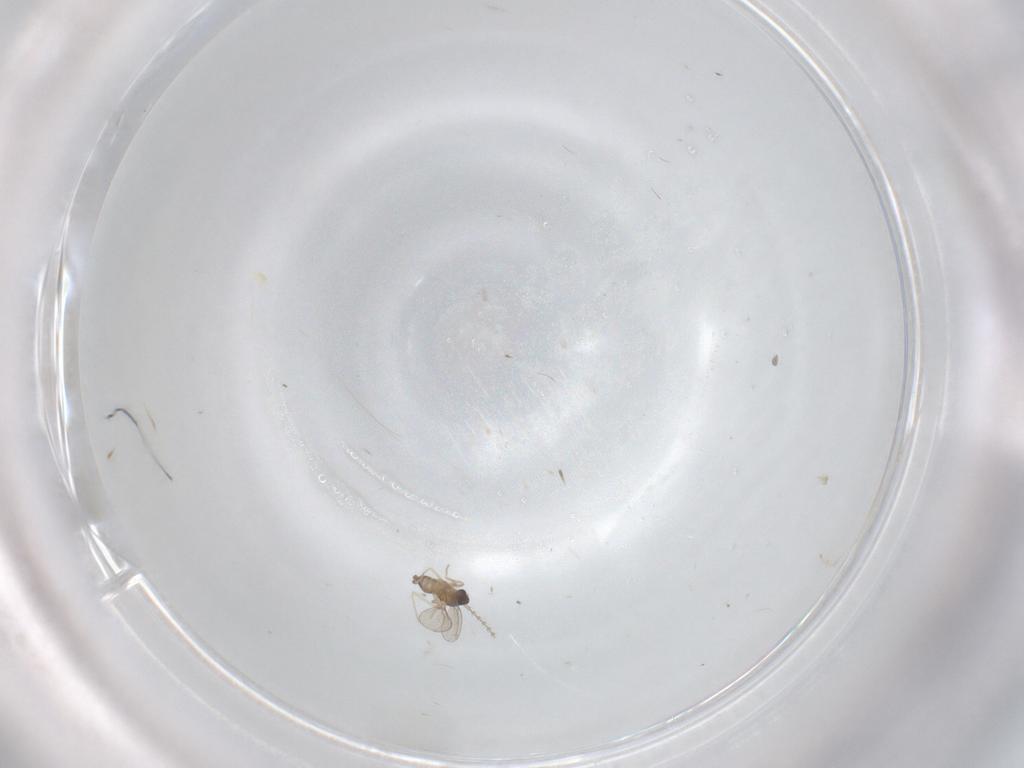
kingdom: Animalia
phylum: Arthropoda
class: Insecta
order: Diptera
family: Cecidomyiidae
